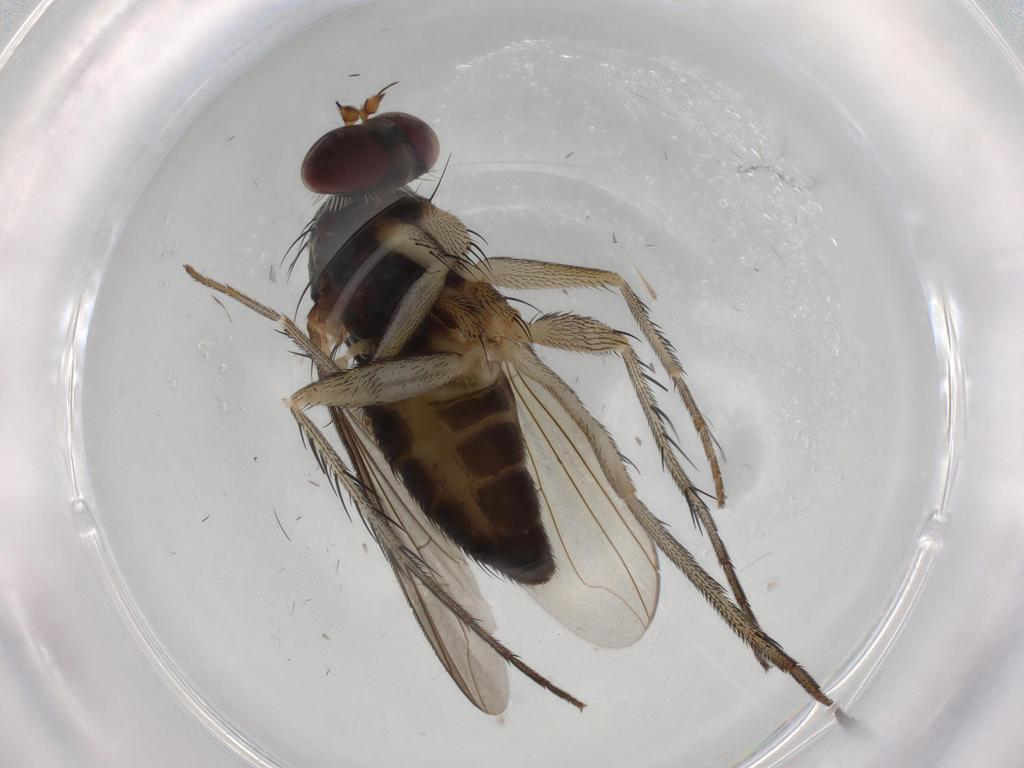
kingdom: Animalia
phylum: Arthropoda
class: Insecta
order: Diptera
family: Dolichopodidae
